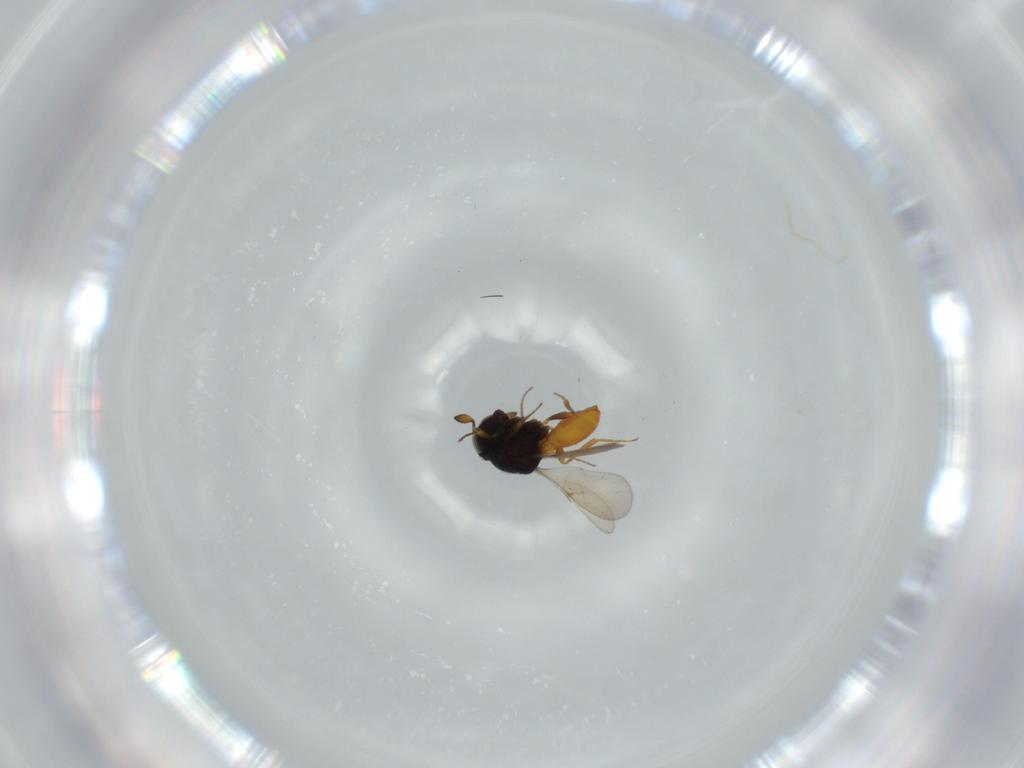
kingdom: Animalia
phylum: Arthropoda
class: Insecta
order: Hymenoptera
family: Scelionidae
